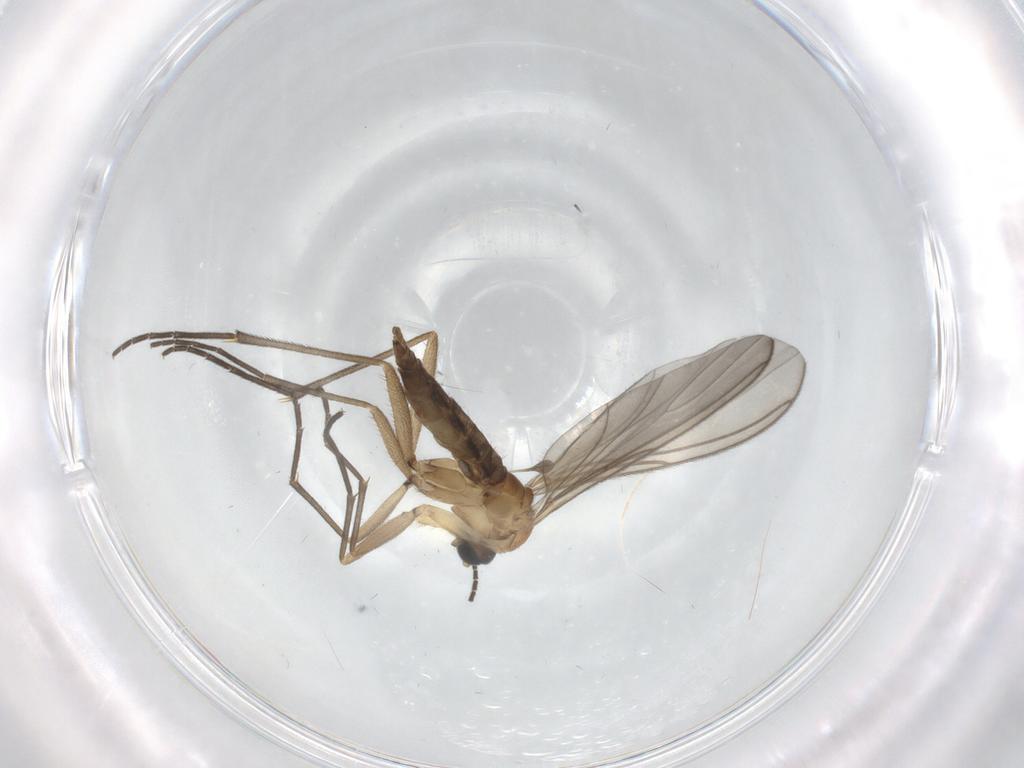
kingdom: Animalia
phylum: Arthropoda
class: Insecta
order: Diptera
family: Sciaridae
